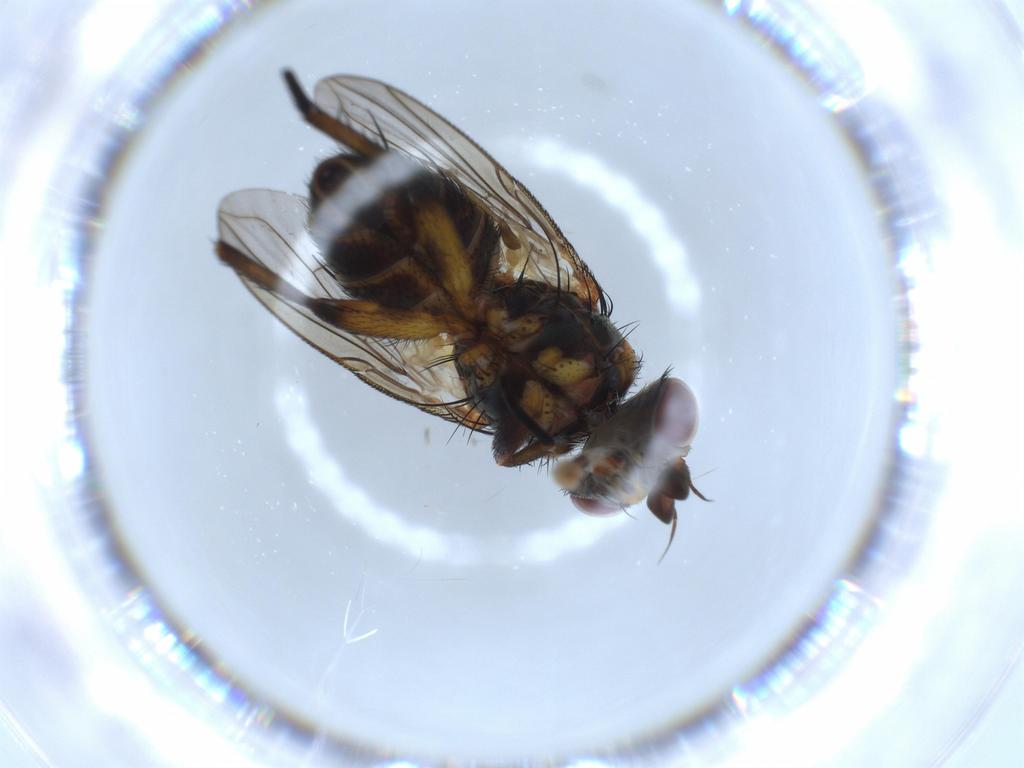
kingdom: Animalia
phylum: Arthropoda
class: Insecta
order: Diptera
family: Tachinidae
